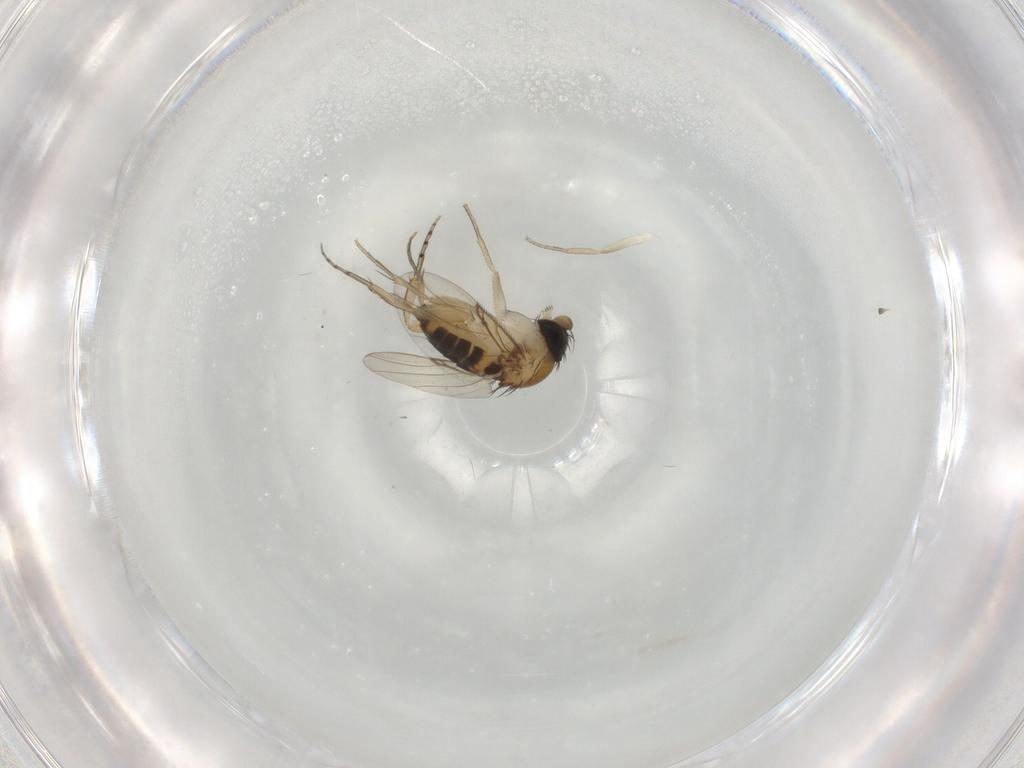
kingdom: Animalia
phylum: Arthropoda
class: Insecta
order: Diptera
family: Phoridae
